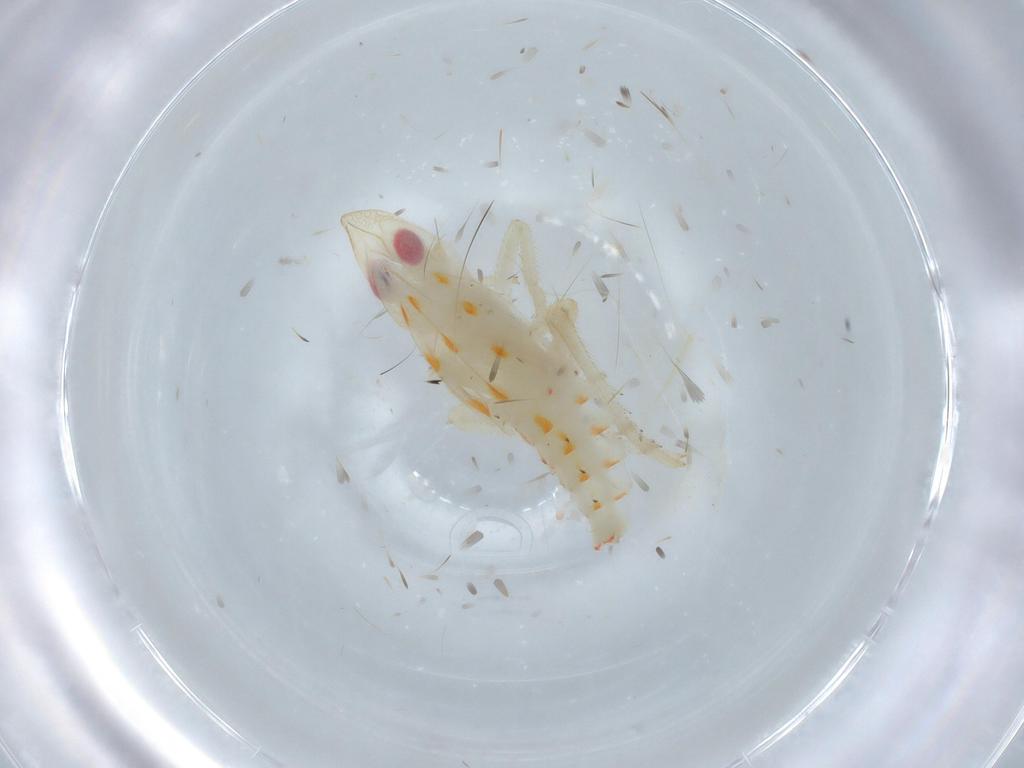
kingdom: Animalia
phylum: Arthropoda
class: Insecta
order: Hemiptera
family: Tropiduchidae
